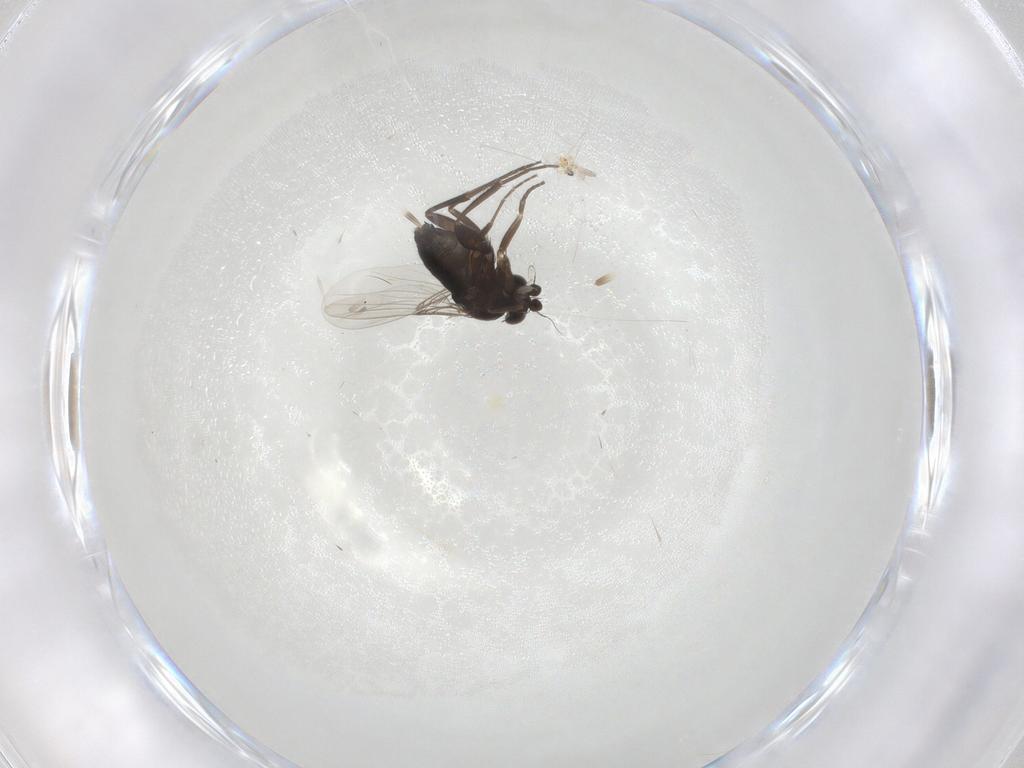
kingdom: Animalia
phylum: Arthropoda
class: Insecta
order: Diptera
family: Phoridae
